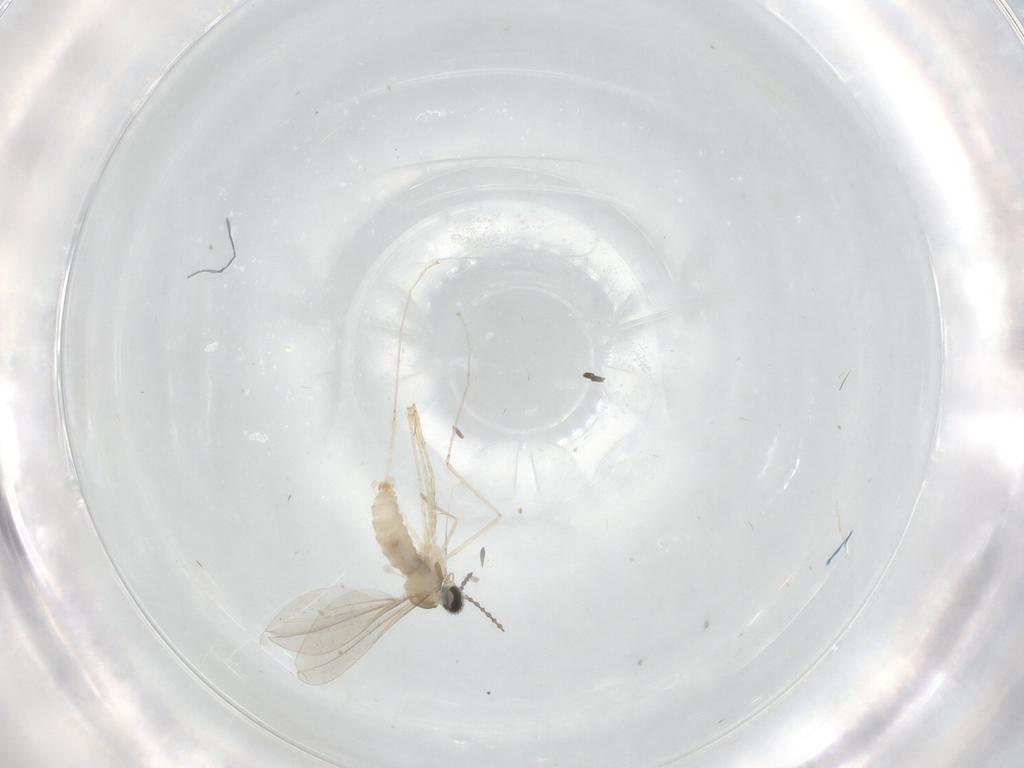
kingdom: Animalia
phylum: Arthropoda
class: Insecta
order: Diptera
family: Cecidomyiidae
